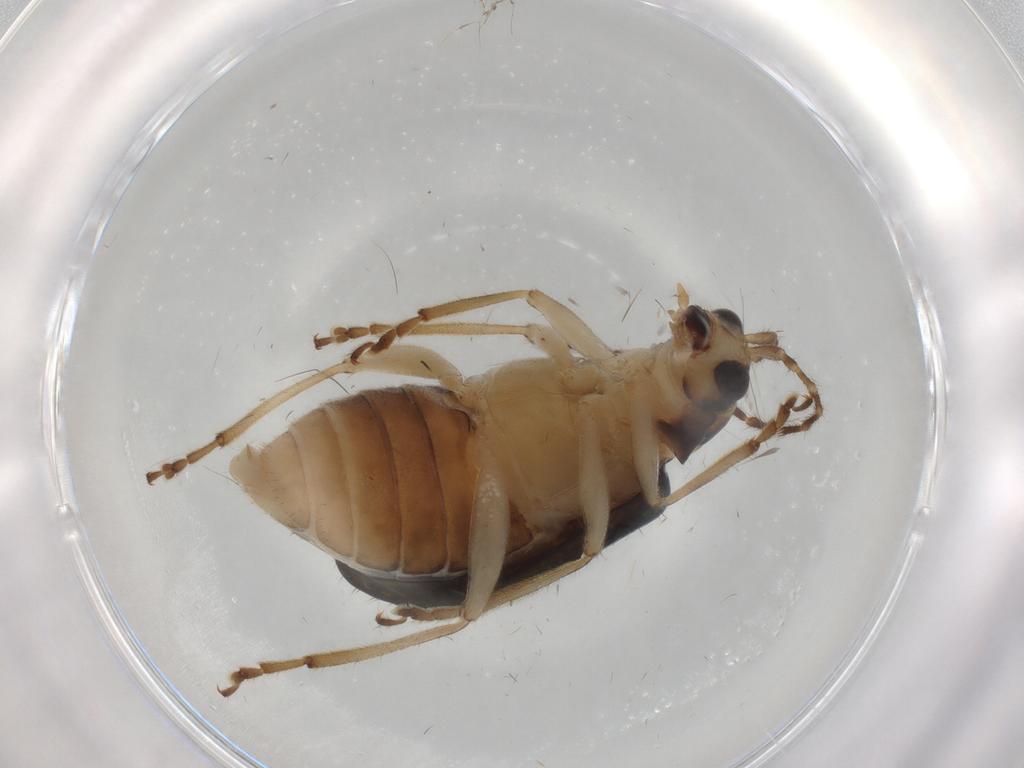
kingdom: Animalia
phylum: Arthropoda
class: Insecta
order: Coleoptera
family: Chrysomelidae
